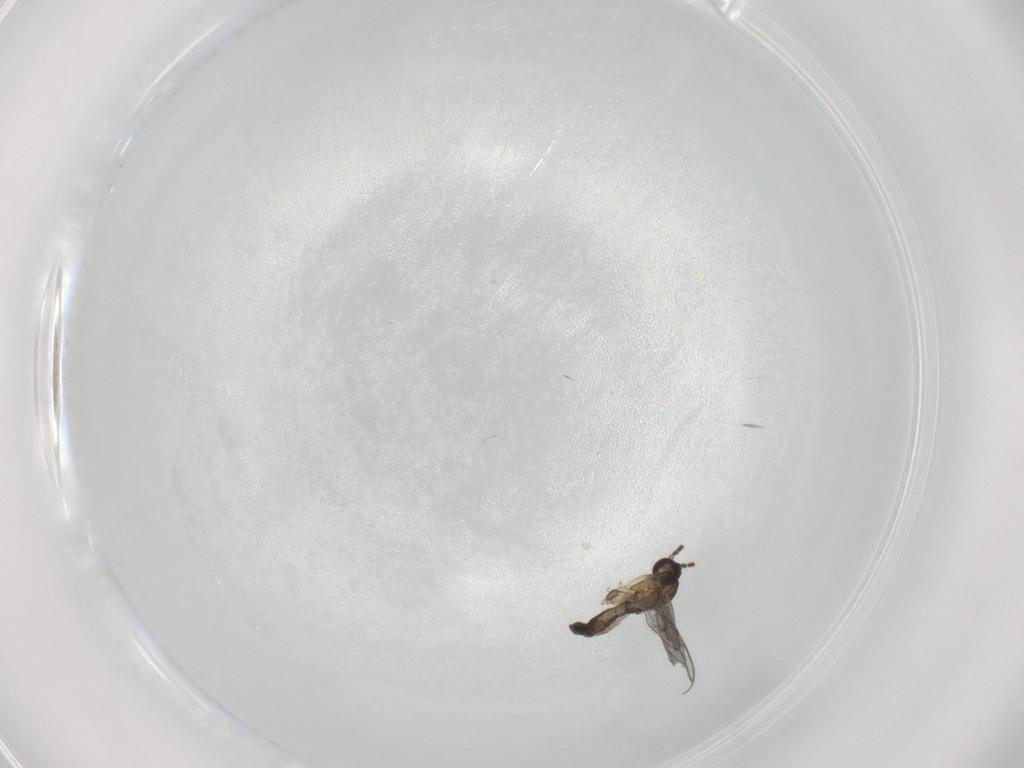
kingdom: Animalia
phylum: Arthropoda
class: Insecta
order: Diptera
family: Sciaridae
